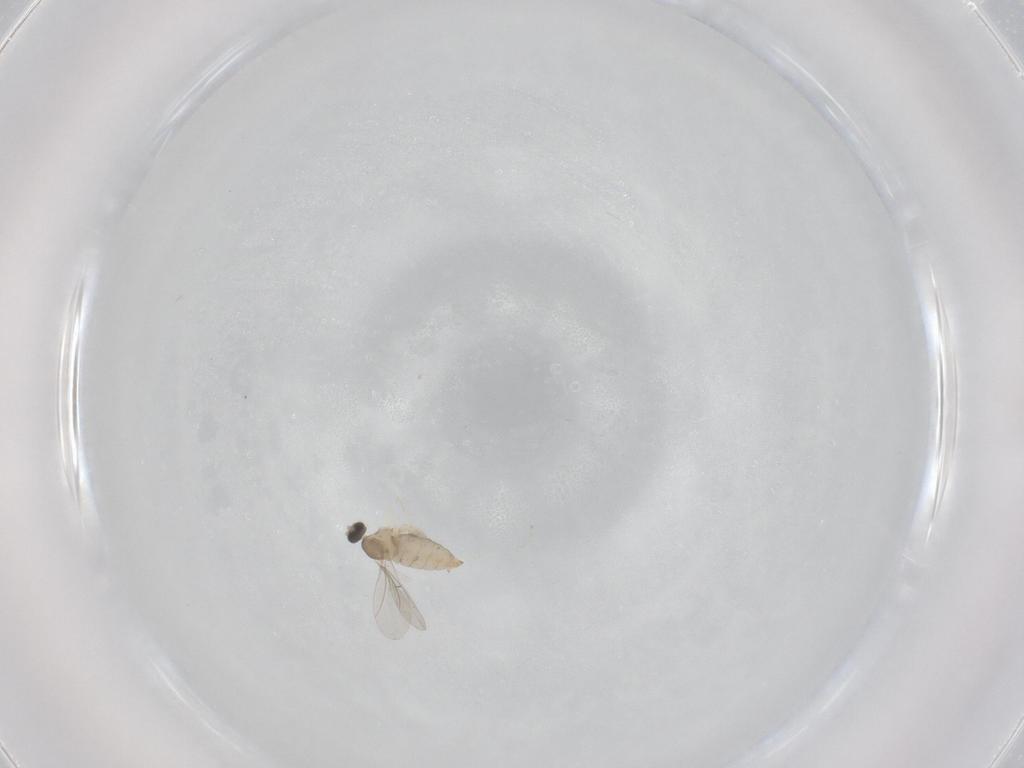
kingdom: Animalia
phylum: Arthropoda
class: Insecta
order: Diptera
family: Cecidomyiidae
